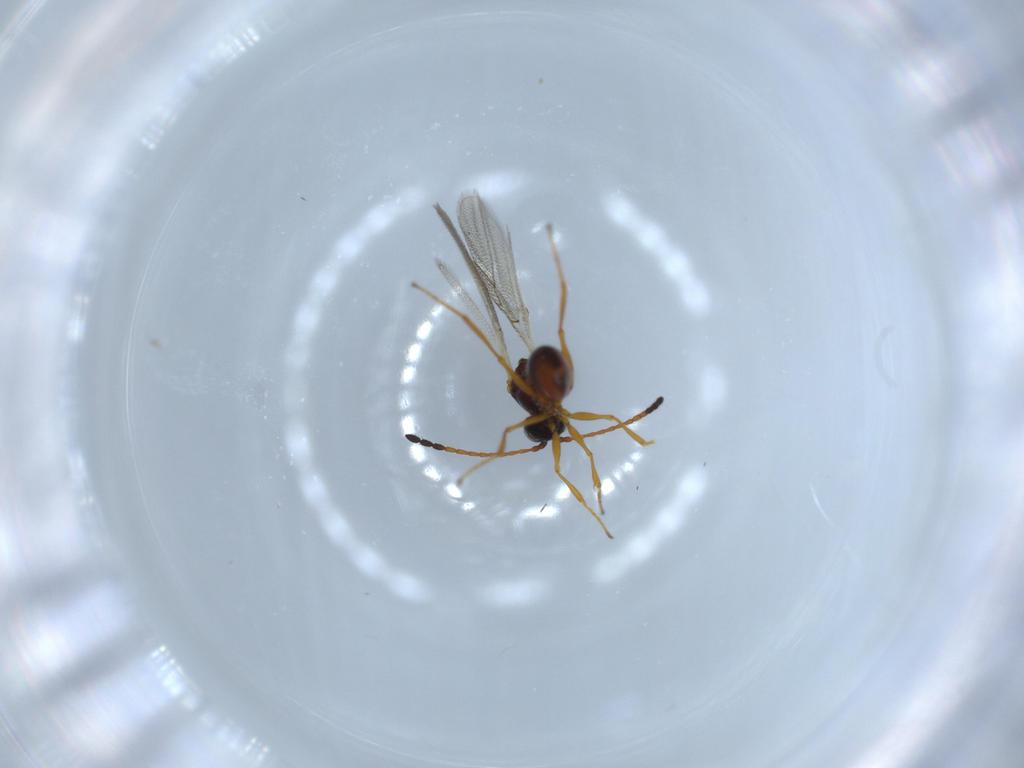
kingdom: Animalia
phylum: Arthropoda
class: Insecta
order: Hymenoptera
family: Figitidae
